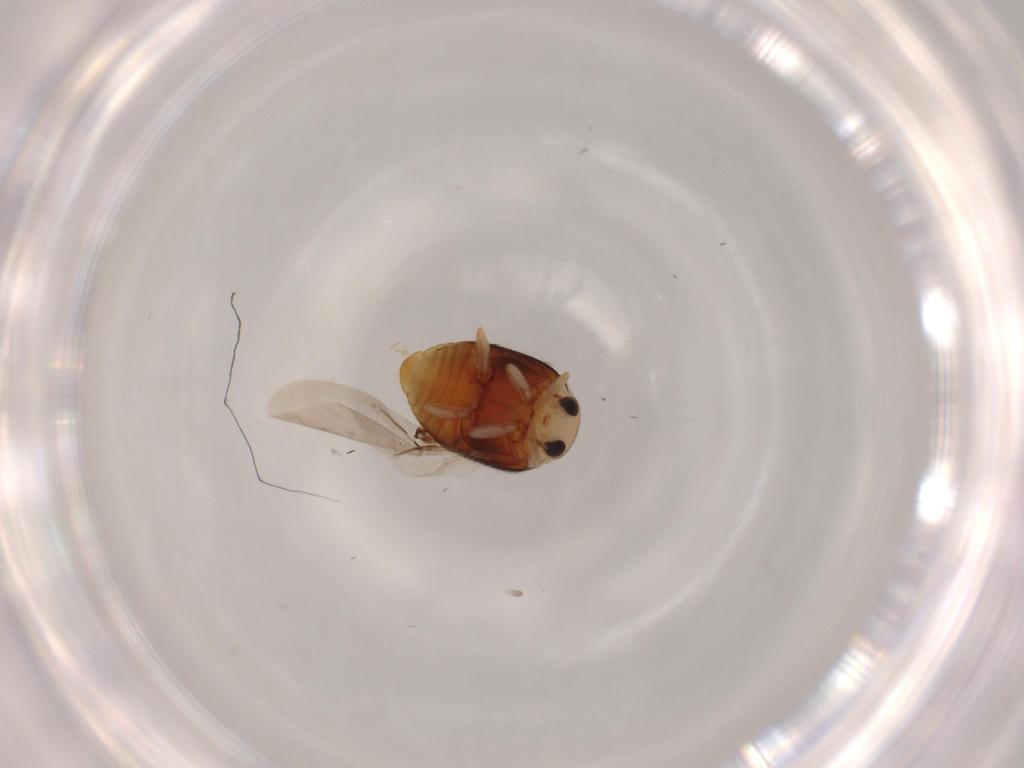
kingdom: Animalia
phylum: Arthropoda
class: Insecta
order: Coleoptera
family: Coccinellidae
